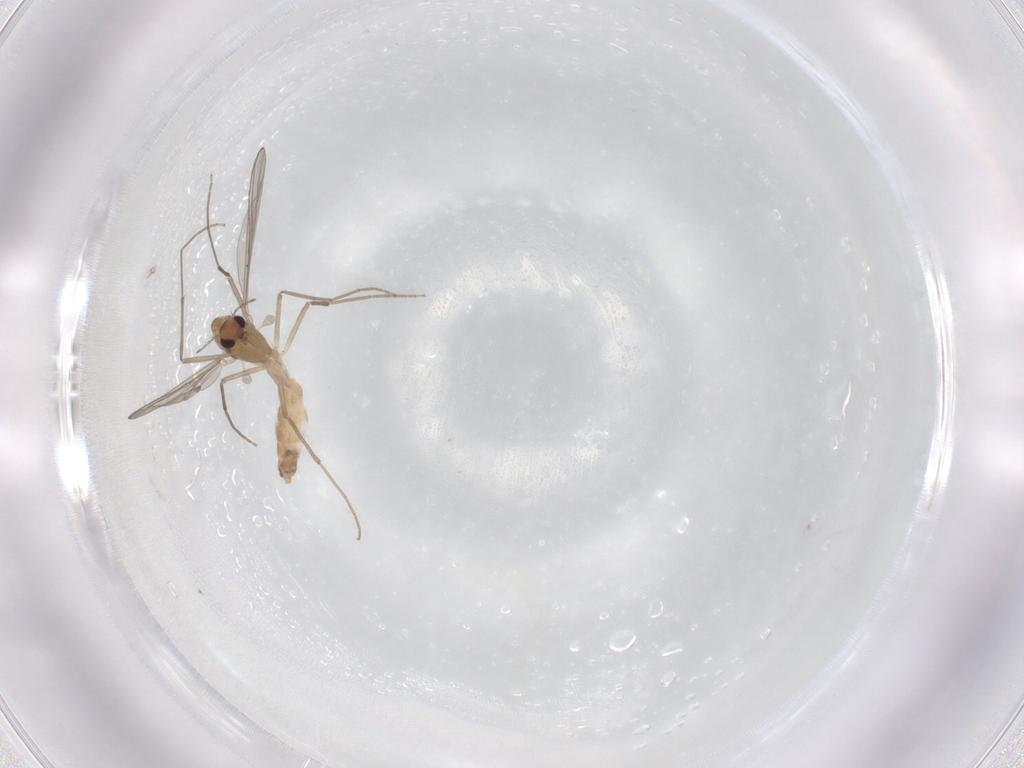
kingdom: Animalia
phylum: Arthropoda
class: Insecta
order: Diptera
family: Chironomidae
